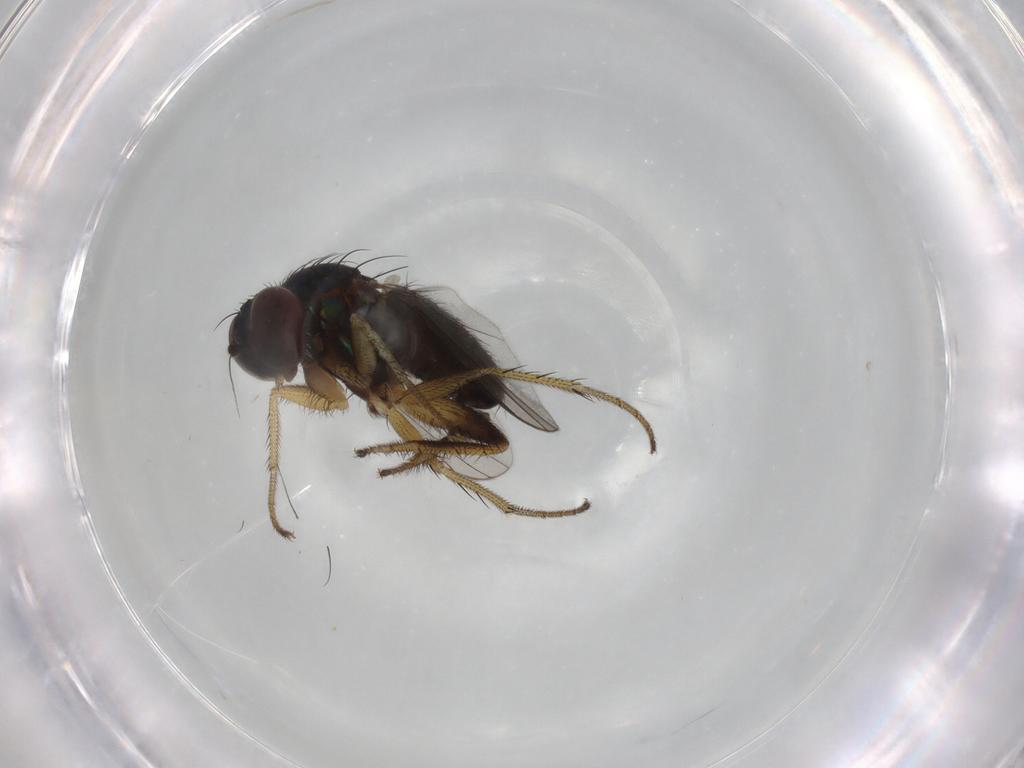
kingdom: Animalia
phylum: Arthropoda
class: Insecta
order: Diptera
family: Dolichopodidae
